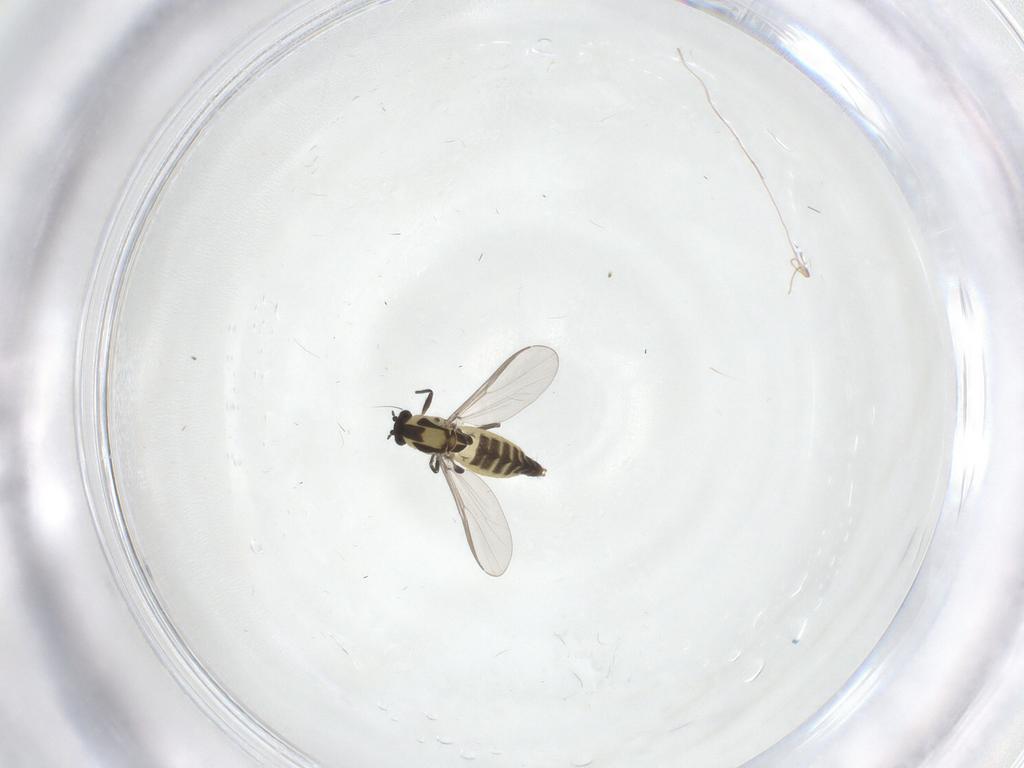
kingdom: Animalia
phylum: Arthropoda
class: Insecta
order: Diptera
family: Chironomidae
